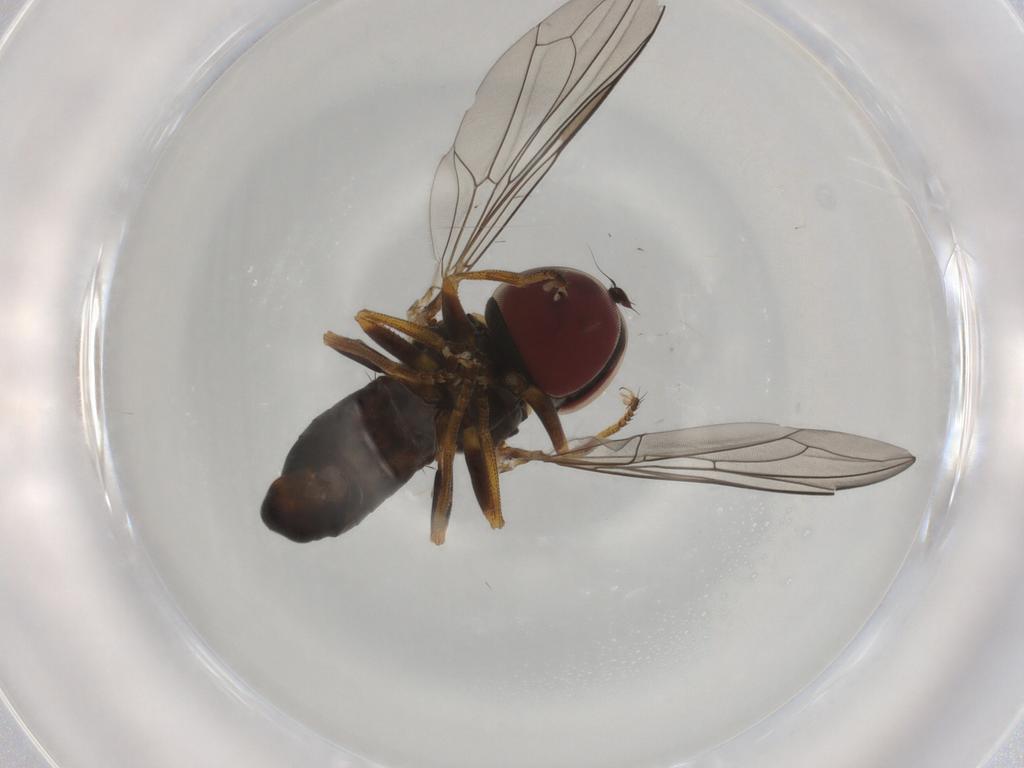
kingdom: Animalia
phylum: Arthropoda
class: Insecta
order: Diptera
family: Pipunculidae
